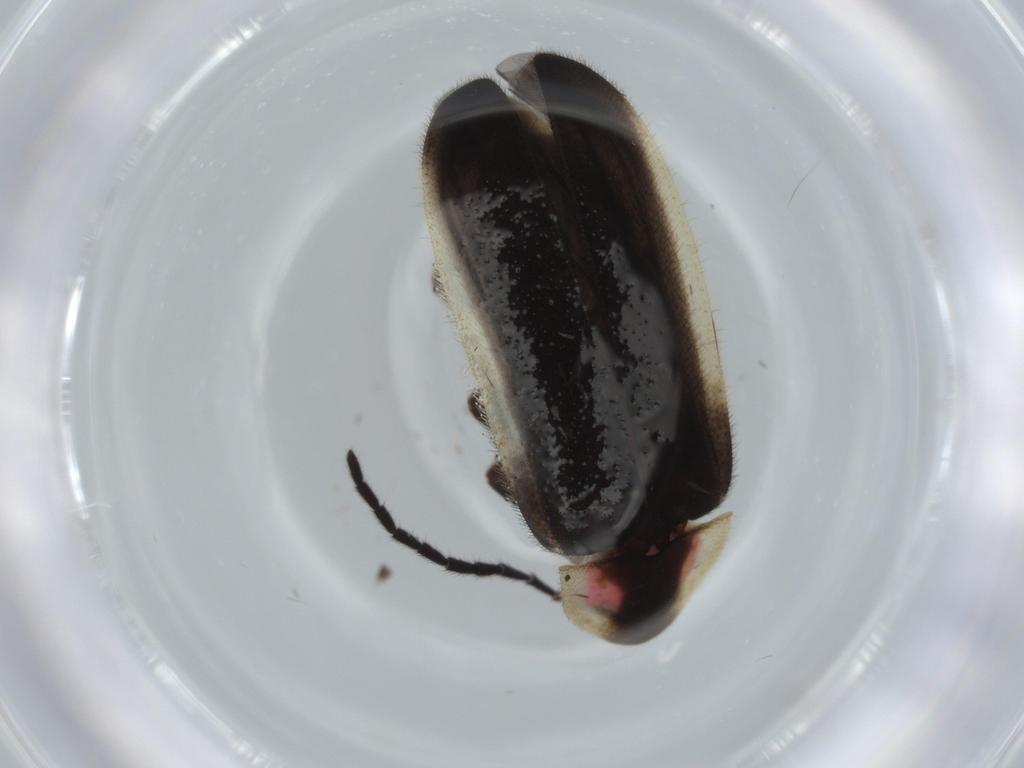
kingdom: Animalia
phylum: Arthropoda
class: Insecta
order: Coleoptera
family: Lampyridae
